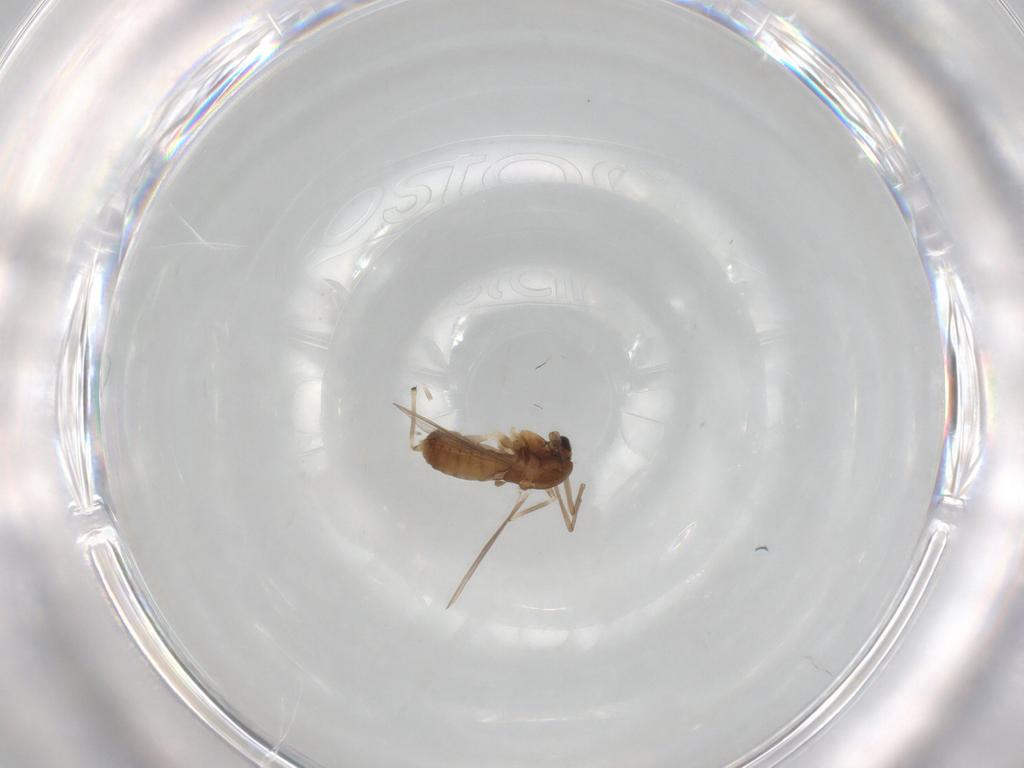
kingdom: Animalia
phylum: Arthropoda
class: Insecta
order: Diptera
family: Chironomidae
